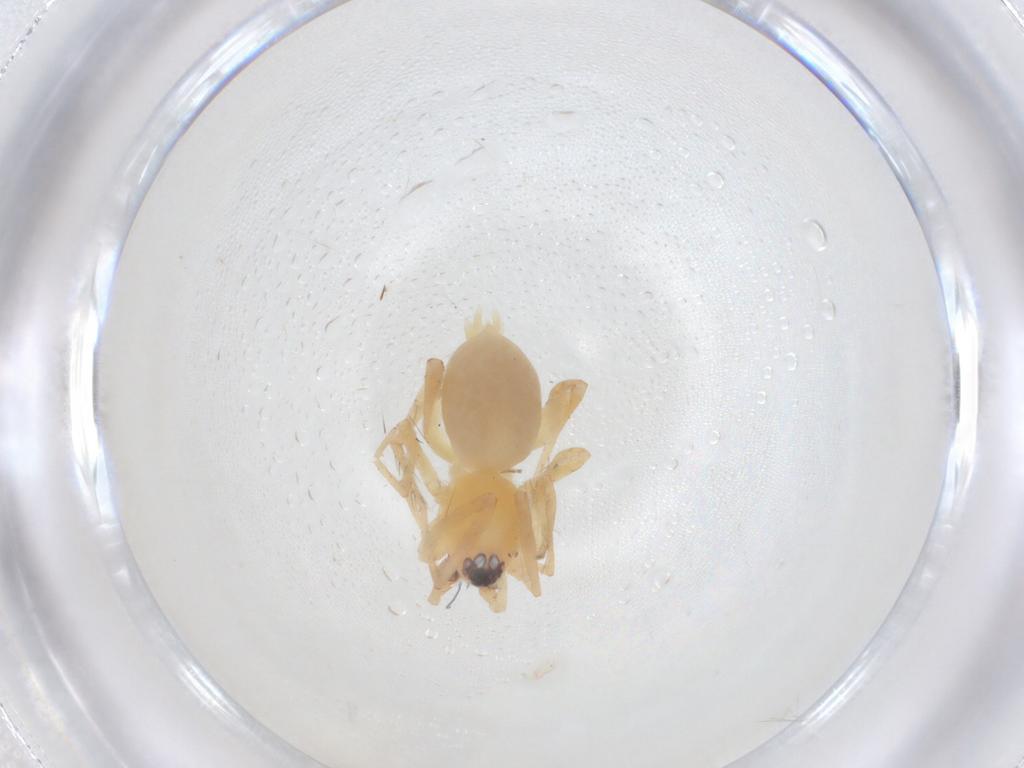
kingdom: Animalia
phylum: Arthropoda
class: Arachnida
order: Araneae
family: Gnaphosidae
